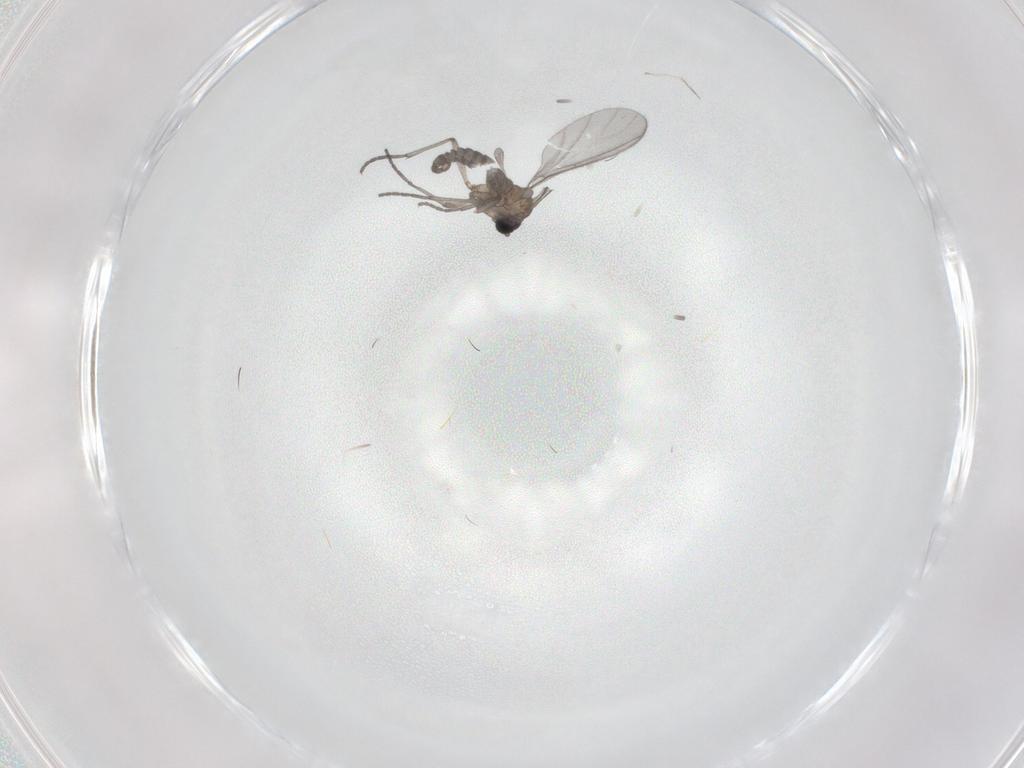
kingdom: Animalia
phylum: Arthropoda
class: Insecta
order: Diptera
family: Sciaridae
